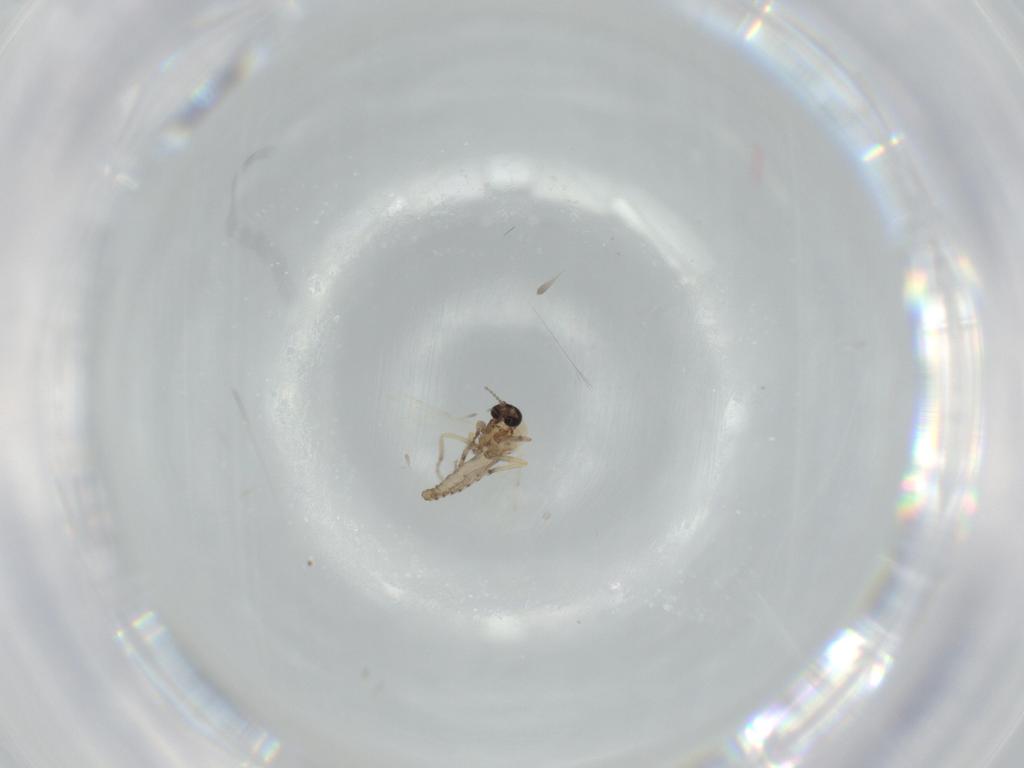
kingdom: Animalia
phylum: Arthropoda
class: Insecta
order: Diptera
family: Ceratopogonidae
